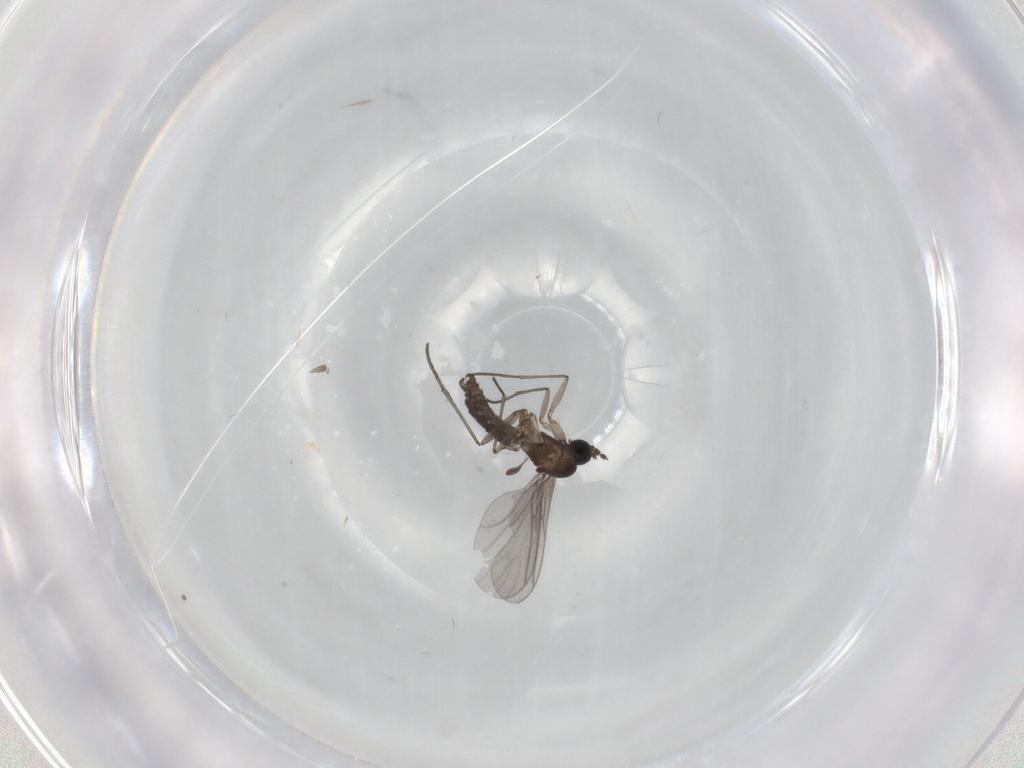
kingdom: Animalia
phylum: Arthropoda
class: Insecta
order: Diptera
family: Sciaridae
